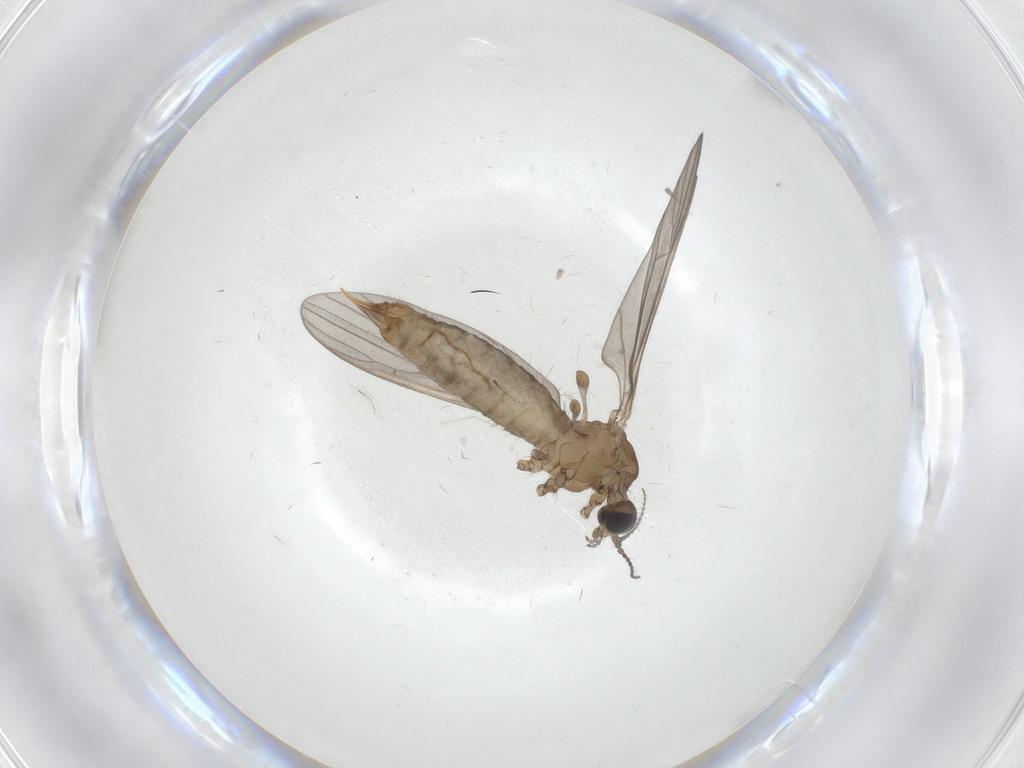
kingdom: Animalia
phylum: Arthropoda
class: Insecta
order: Diptera
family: Limoniidae
